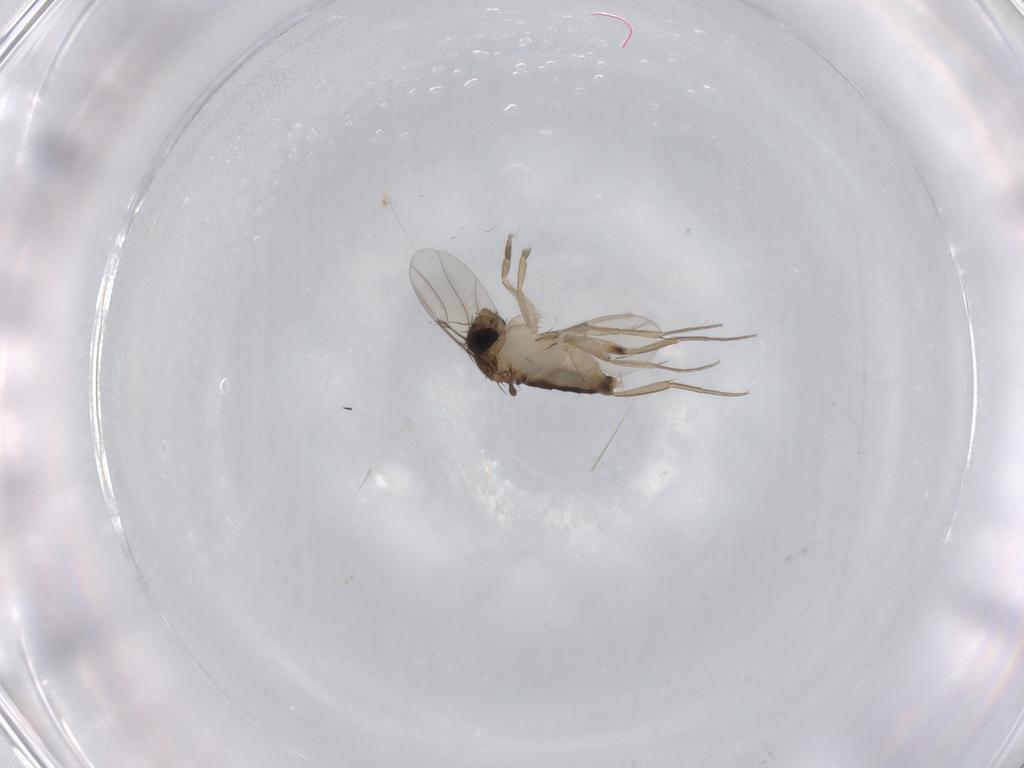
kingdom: Animalia
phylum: Arthropoda
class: Insecta
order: Diptera
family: Phoridae
